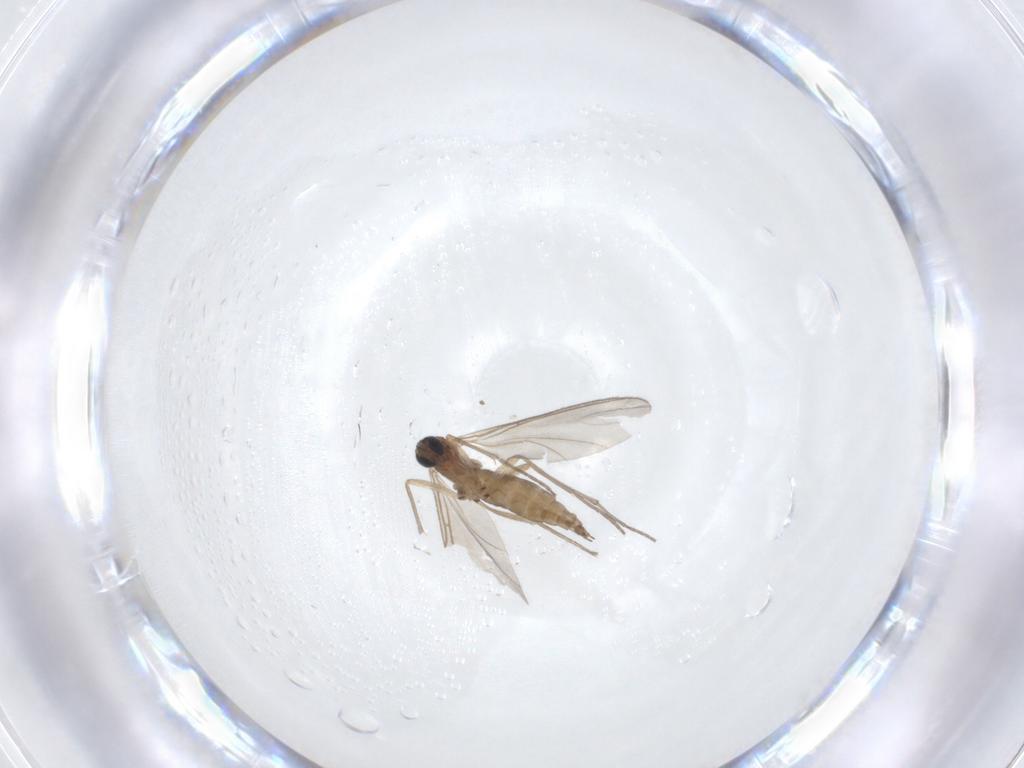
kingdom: Animalia
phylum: Arthropoda
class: Insecta
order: Diptera
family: Sciaridae
